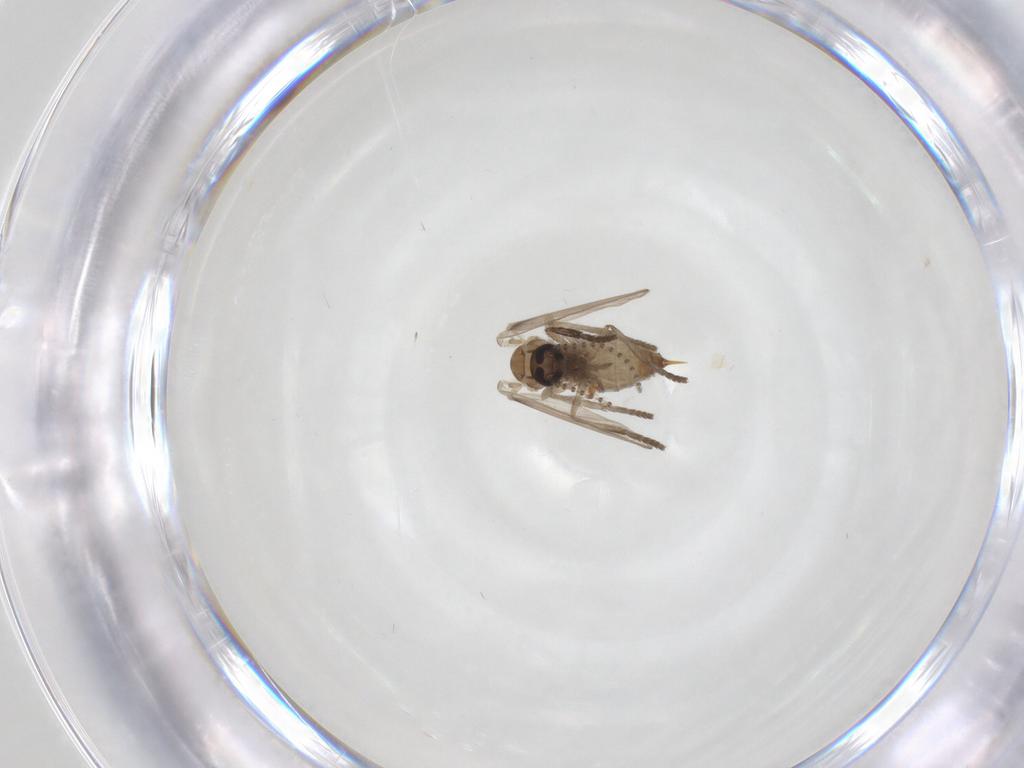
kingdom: Animalia
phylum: Arthropoda
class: Insecta
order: Diptera
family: Psychodidae
